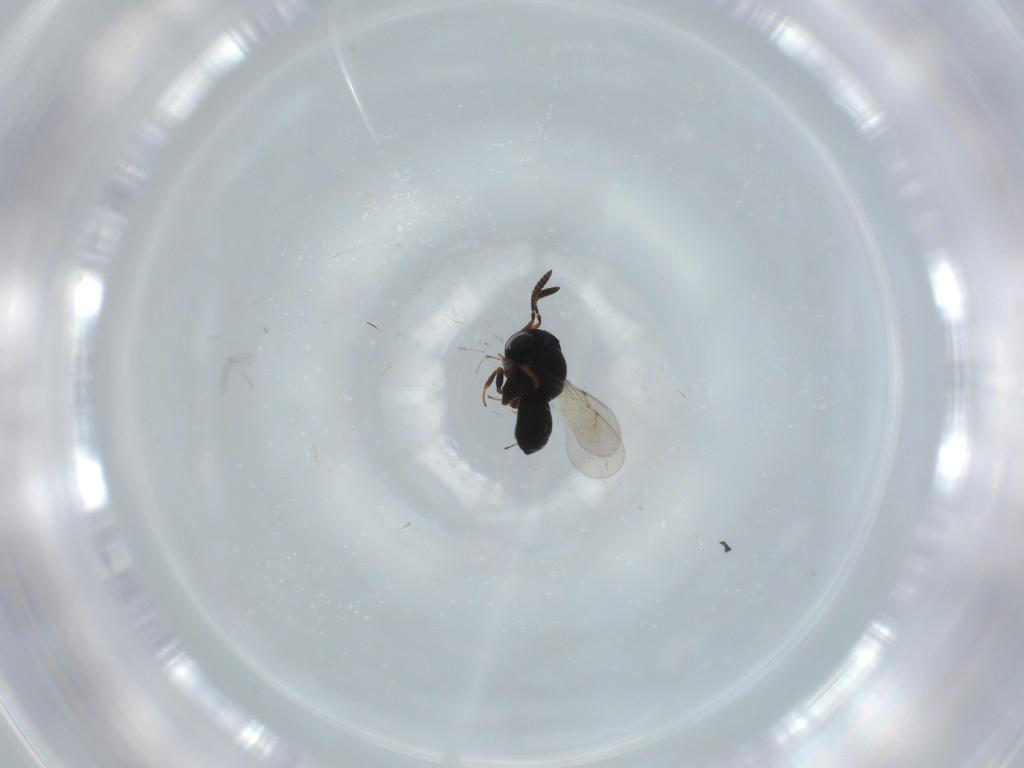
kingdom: Animalia
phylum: Arthropoda
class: Insecta
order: Hymenoptera
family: Scelionidae
